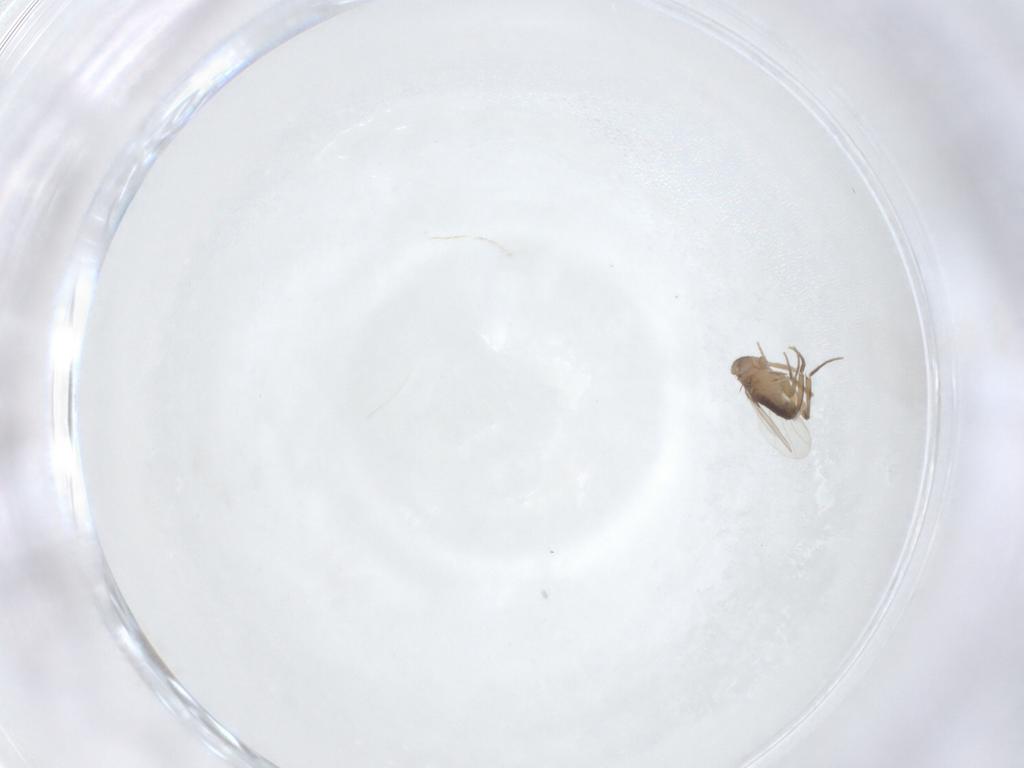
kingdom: Animalia
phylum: Arthropoda
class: Insecta
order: Diptera
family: Phoridae
